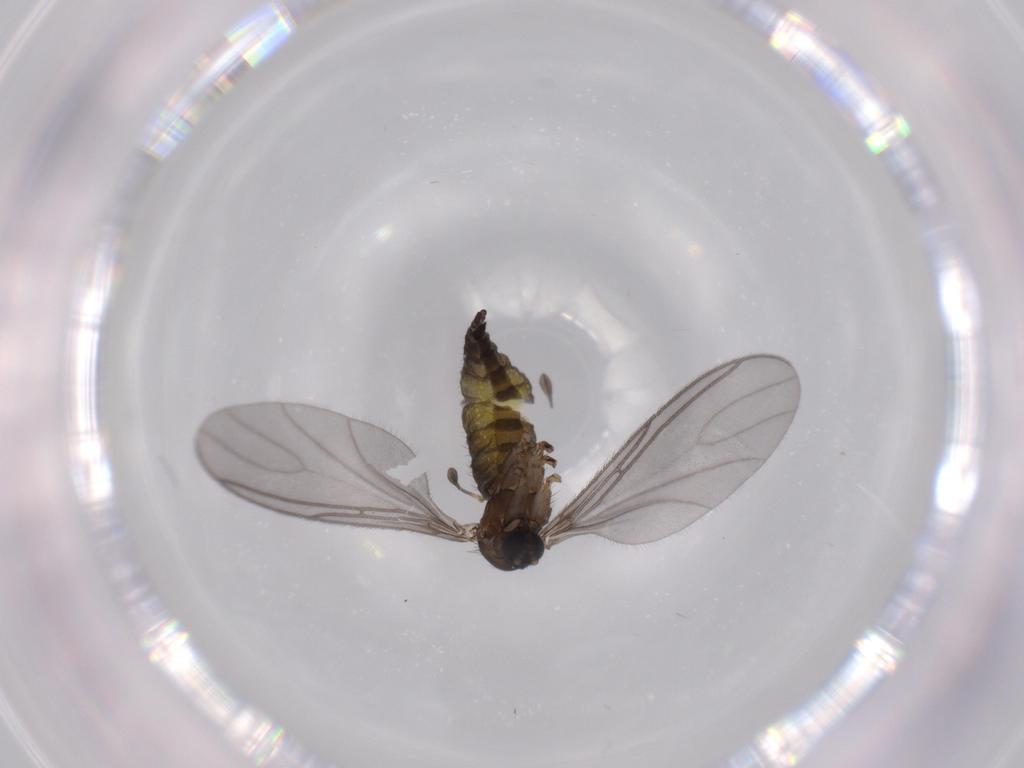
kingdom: Animalia
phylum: Arthropoda
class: Insecta
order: Diptera
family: Sciaridae
